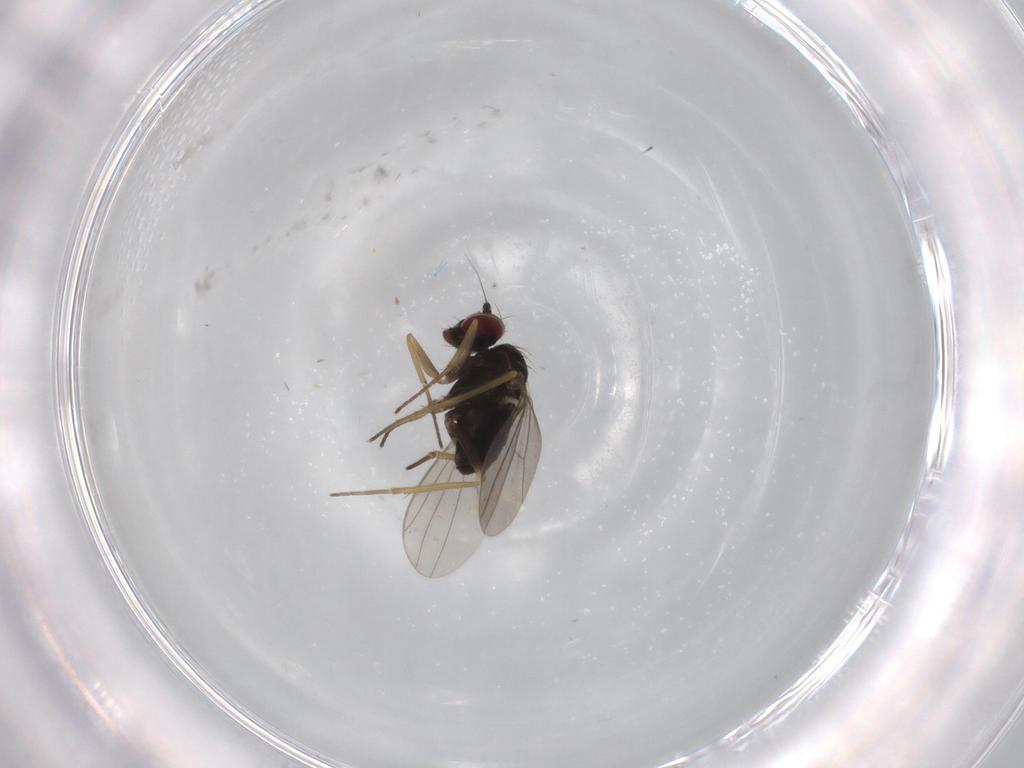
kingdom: Animalia
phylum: Arthropoda
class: Insecta
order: Diptera
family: Dolichopodidae
